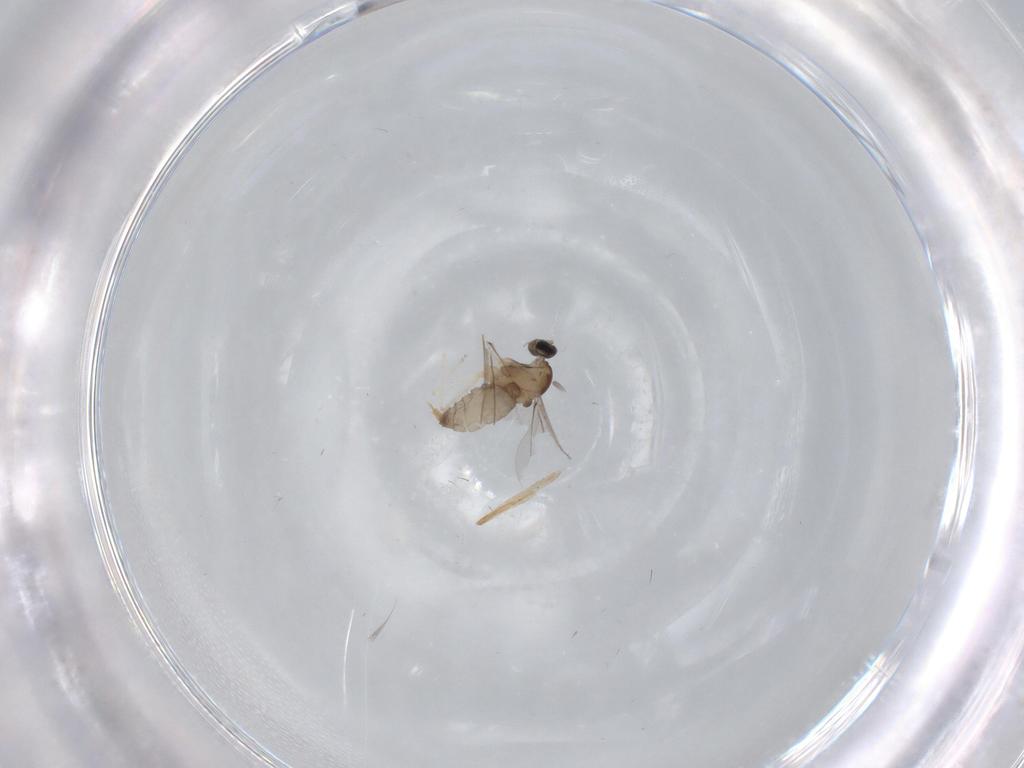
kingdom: Animalia
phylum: Arthropoda
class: Insecta
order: Diptera
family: Cecidomyiidae
